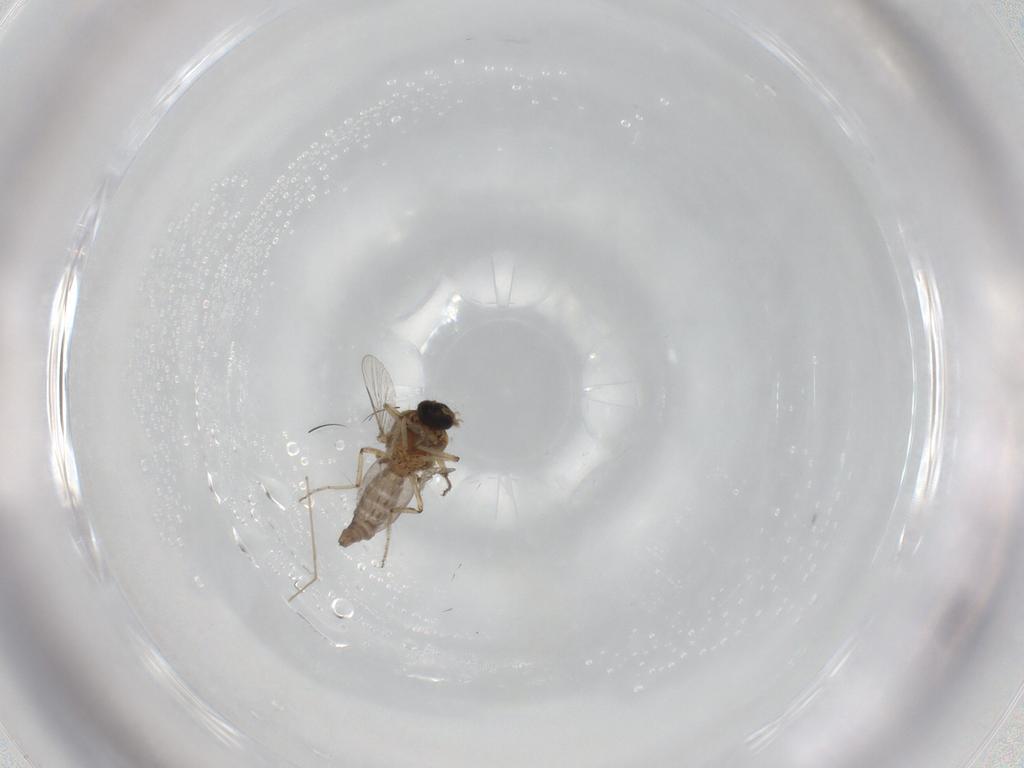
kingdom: Animalia
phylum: Arthropoda
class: Insecta
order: Diptera
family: Ceratopogonidae
